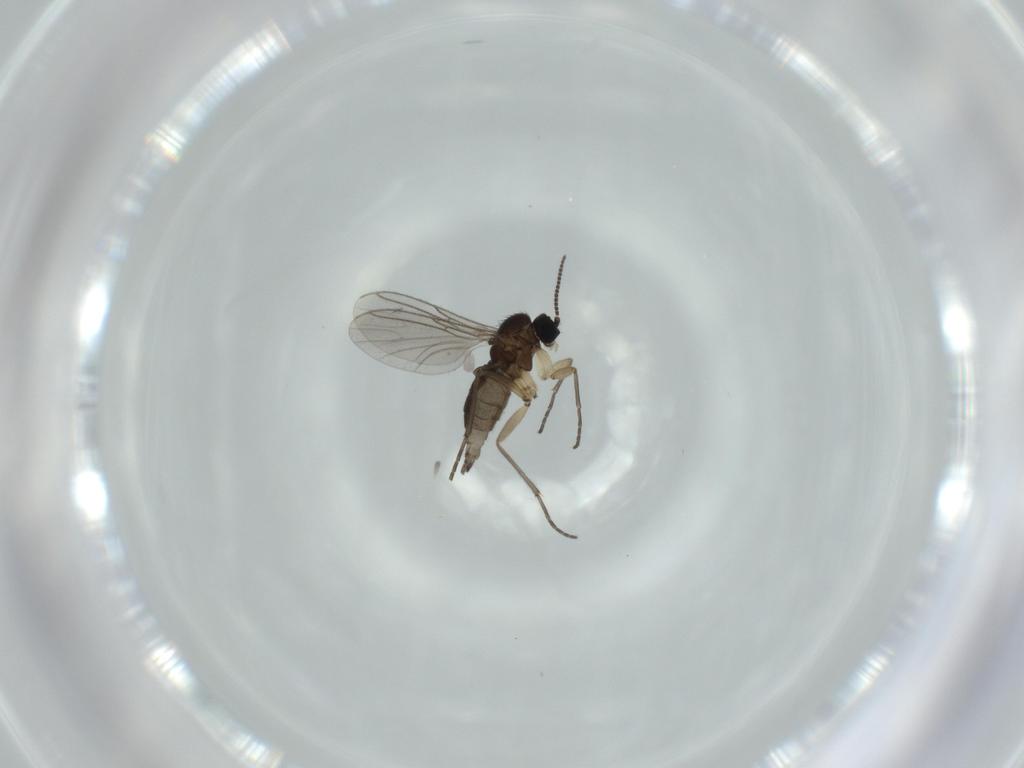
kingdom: Animalia
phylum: Arthropoda
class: Insecta
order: Diptera
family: Sciaridae
